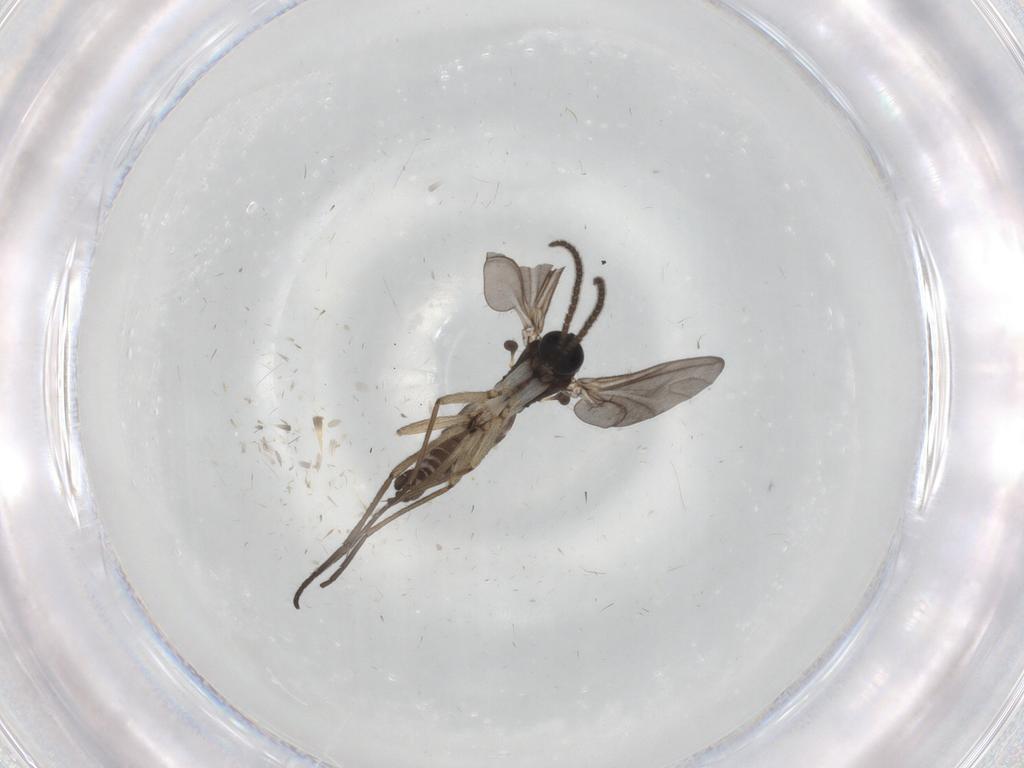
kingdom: Animalia
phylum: Arthropoda
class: Insecta
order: Diptera
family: Sciaridae
